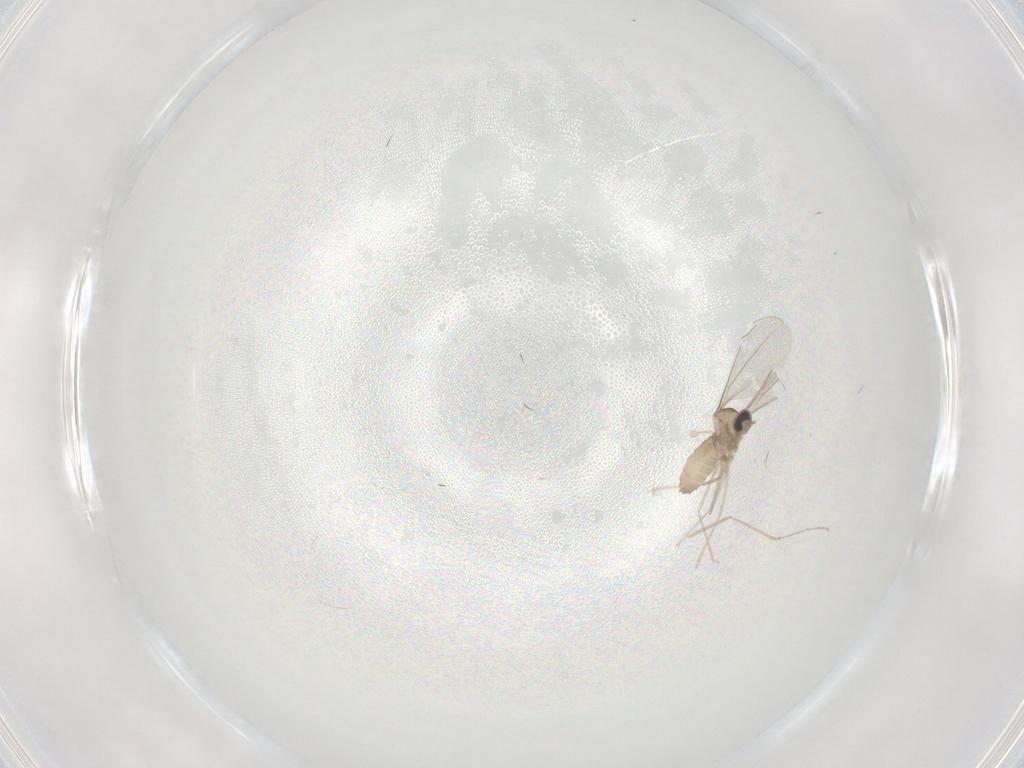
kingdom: Animalia
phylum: Arthropoda
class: Insecta
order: Diptera
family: Cecidomyiidae
